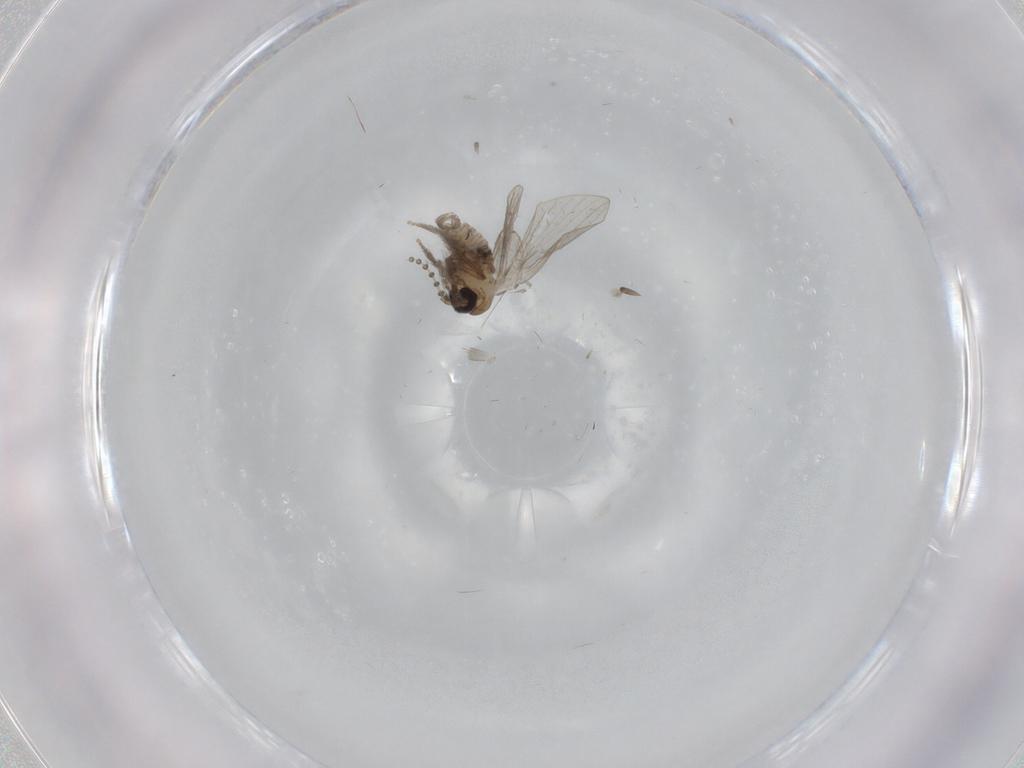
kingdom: Animalia
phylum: Arthropoda
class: Insecta
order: Diptera
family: Psychodidae
